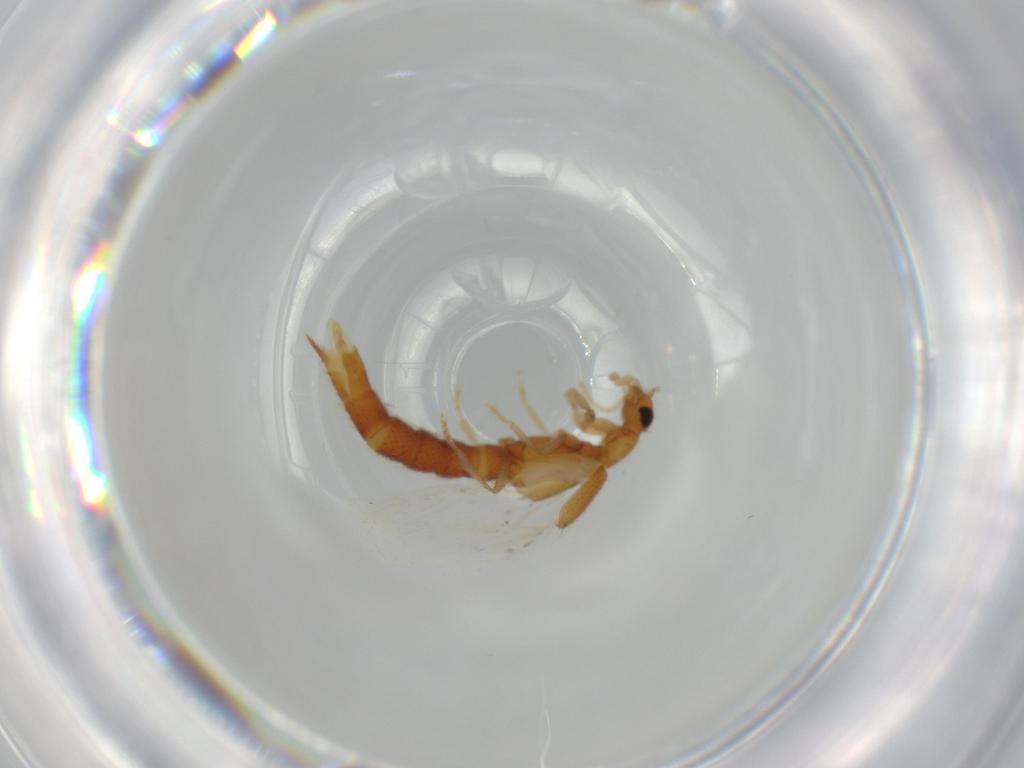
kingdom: Animalia
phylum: Arthropoda
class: Insecta
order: Coleoptera
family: Staphylinidae
